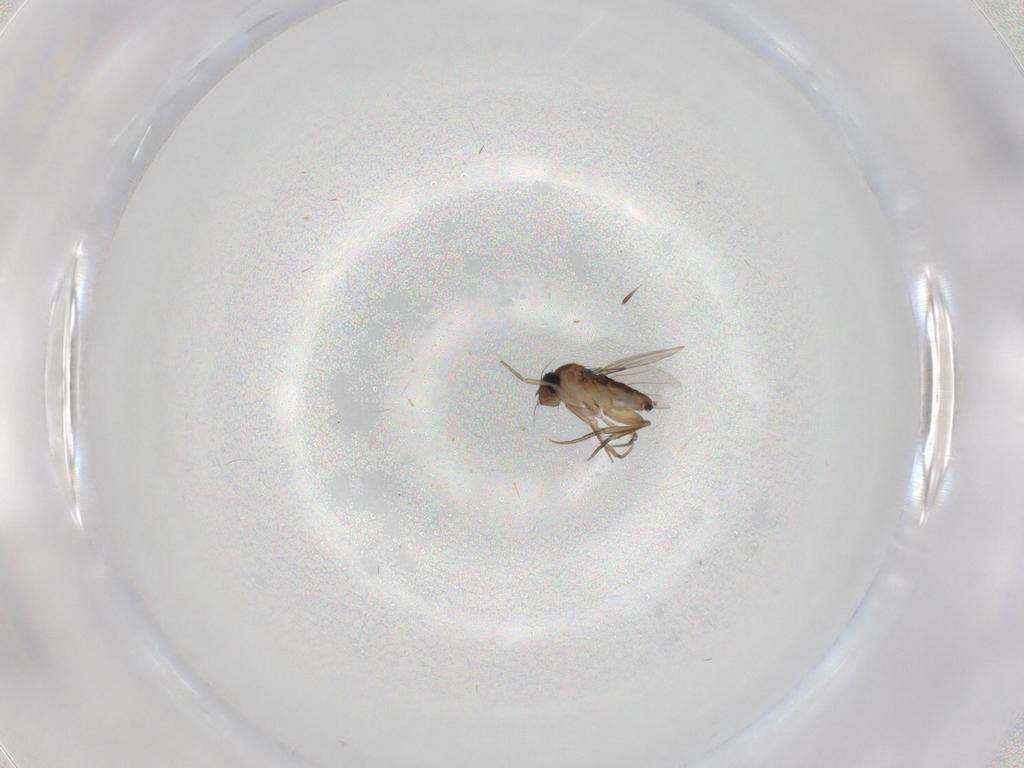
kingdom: Animalia
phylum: Arthropoda
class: Insecta
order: Diptera
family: Phoridae
